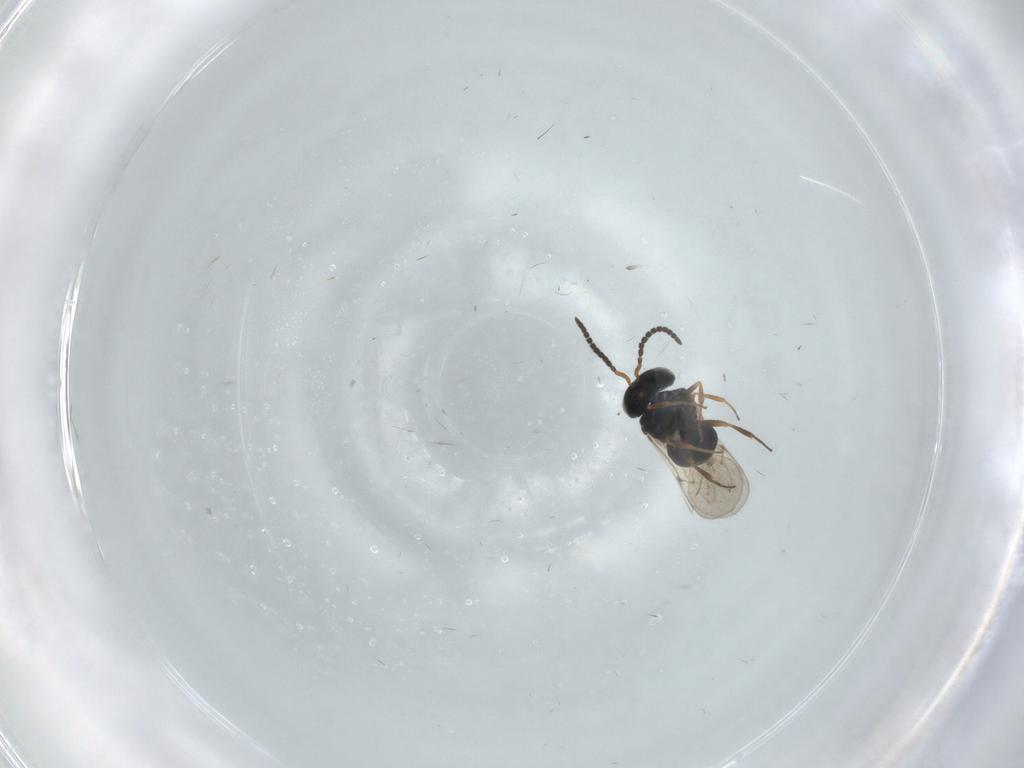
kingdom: Animalia
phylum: Arthropoda
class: Insecta
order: Hymenoptera
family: Scelionidae
